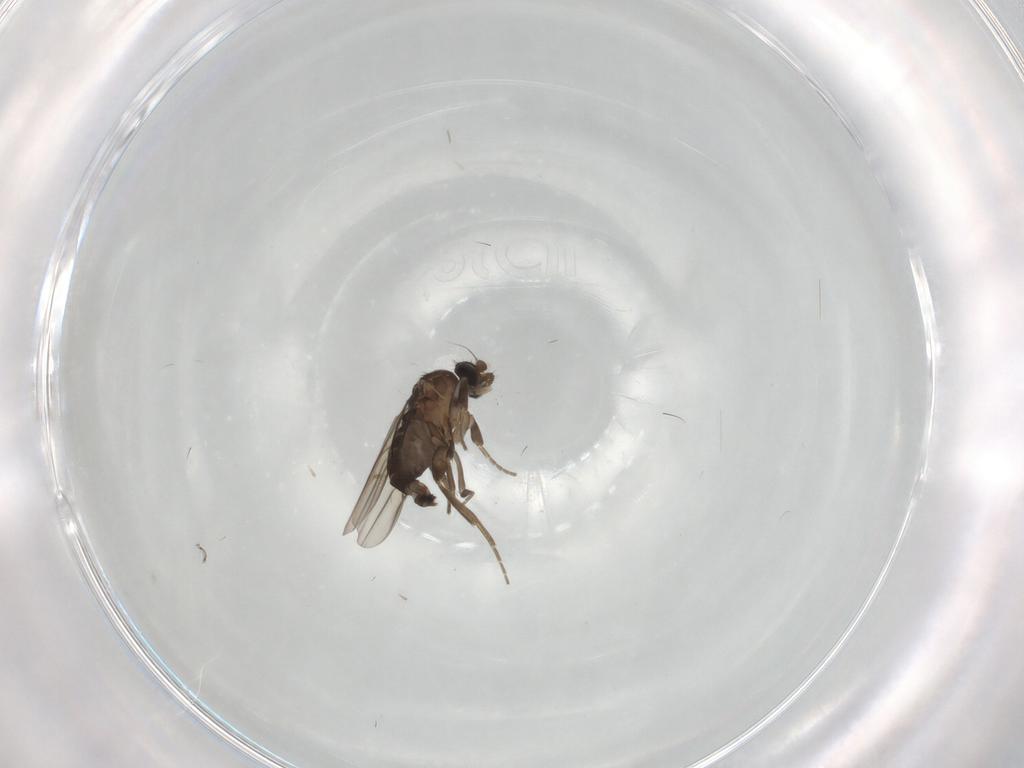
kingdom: Animalia
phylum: Arthropoda
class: Insecta
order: Diptera
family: Phoridae
